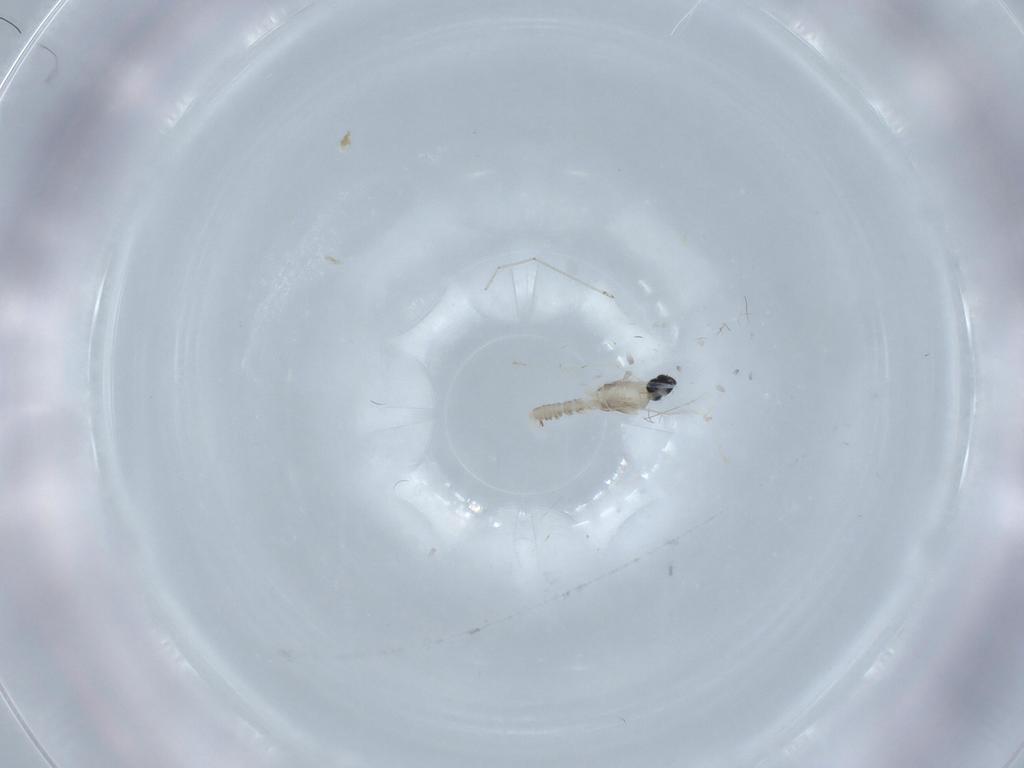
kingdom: Animalia
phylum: Arthropoda
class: Insecta
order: Diptera
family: Cecidomyiidae
